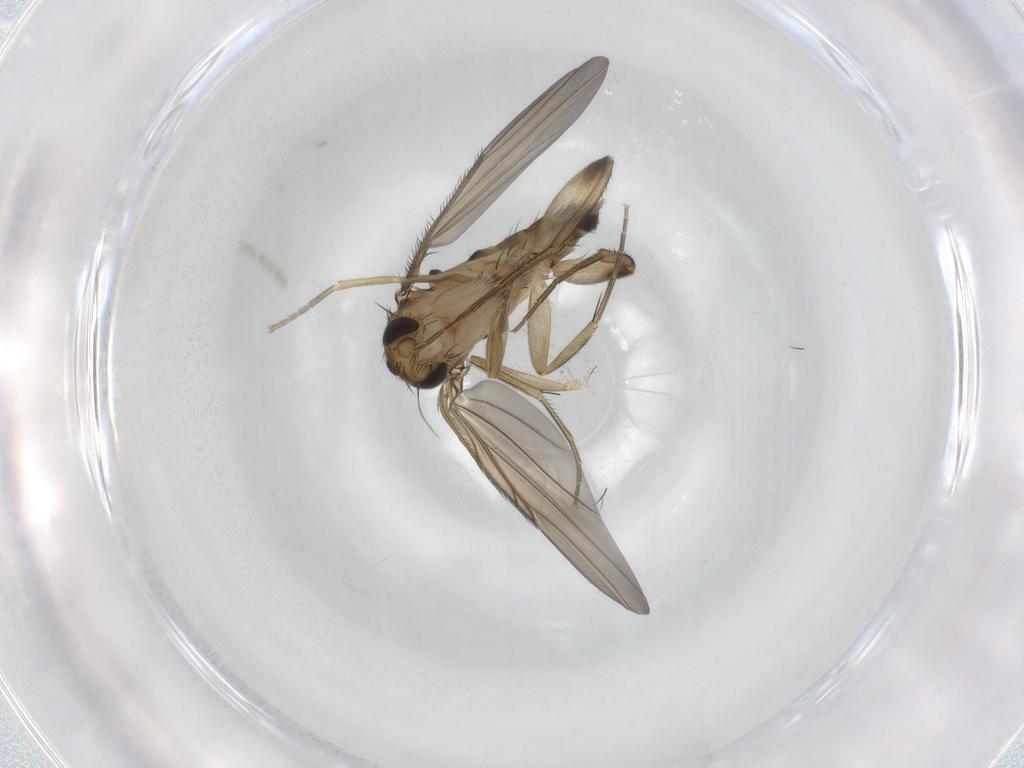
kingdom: Animalia
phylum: Arthropoda
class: Insecta
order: Diptera
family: Phoridae
